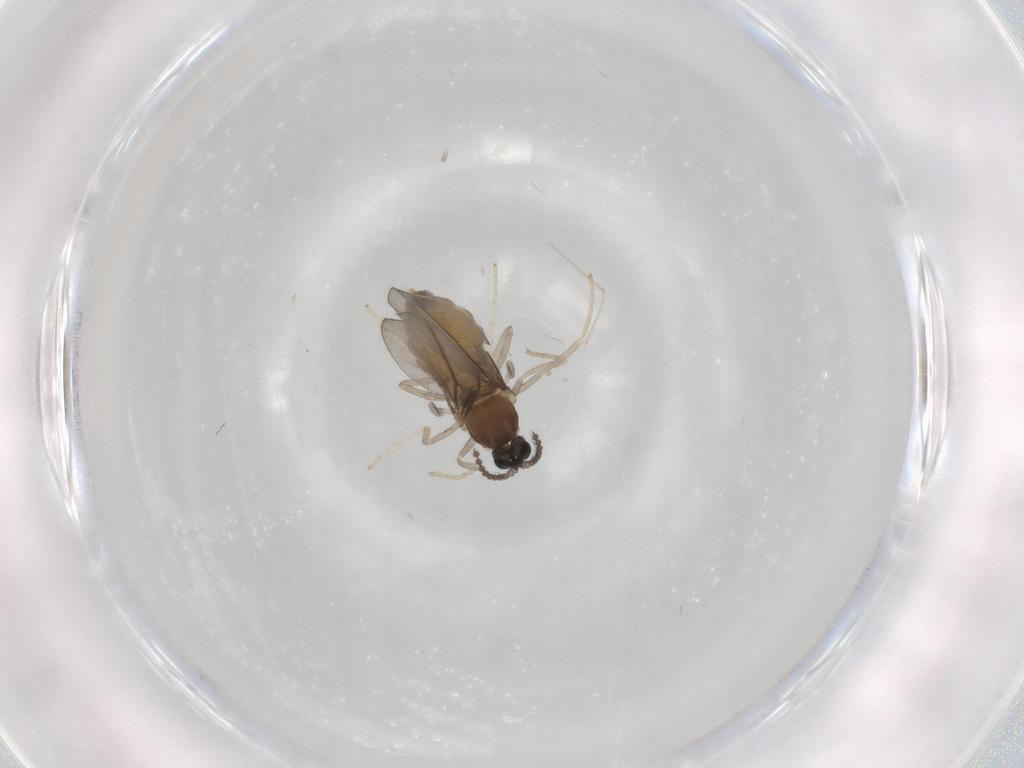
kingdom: Animalia
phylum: Arthropoda
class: Insecta
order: Diptera
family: Cecidomyiidae
